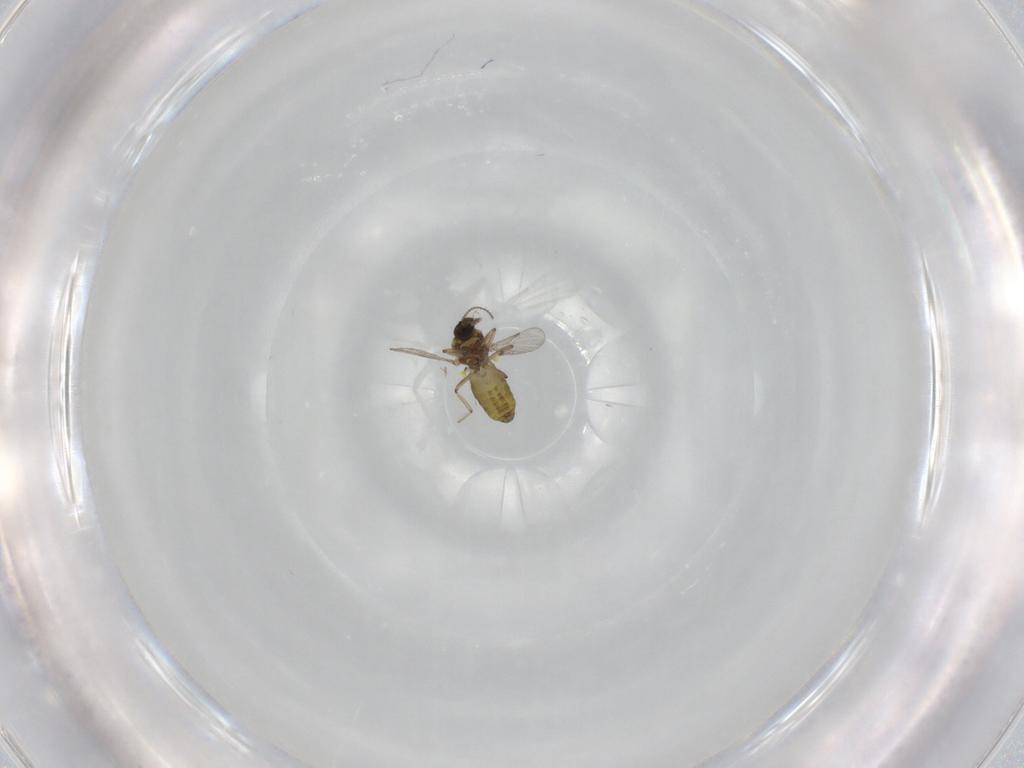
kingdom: Animalia
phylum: Arthropoda
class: Insecta
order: Diptera
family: Ceratopogonidae
